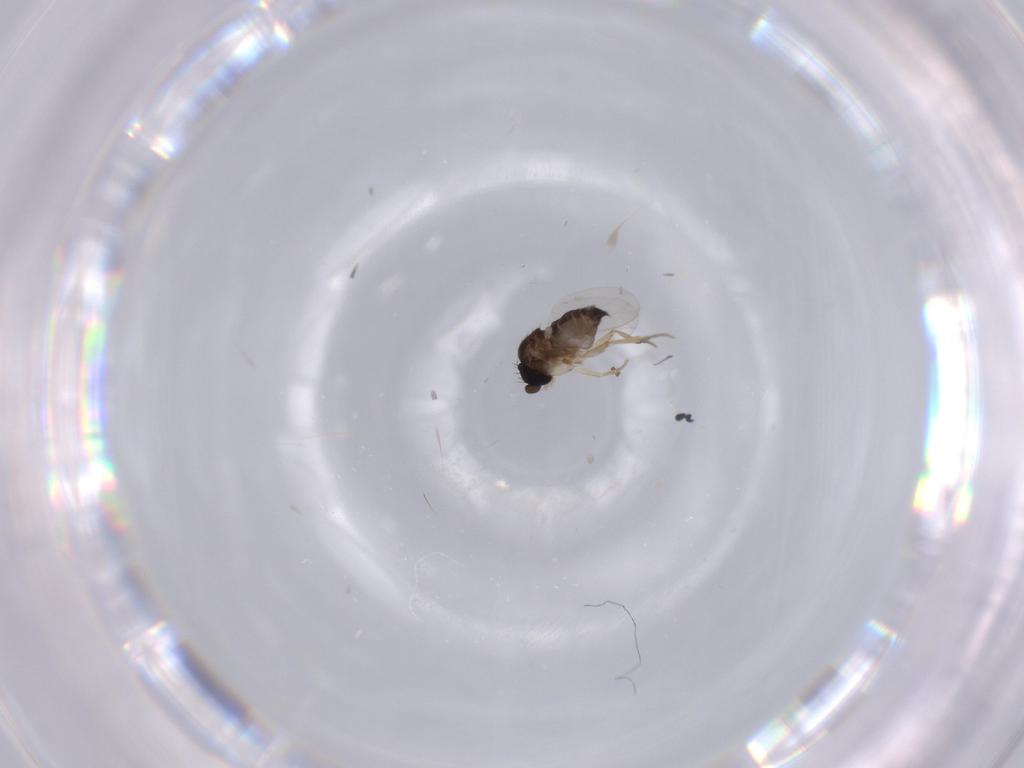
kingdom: Animalia
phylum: Arthropoda
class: Insecta
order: Diptera
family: Phoridae
